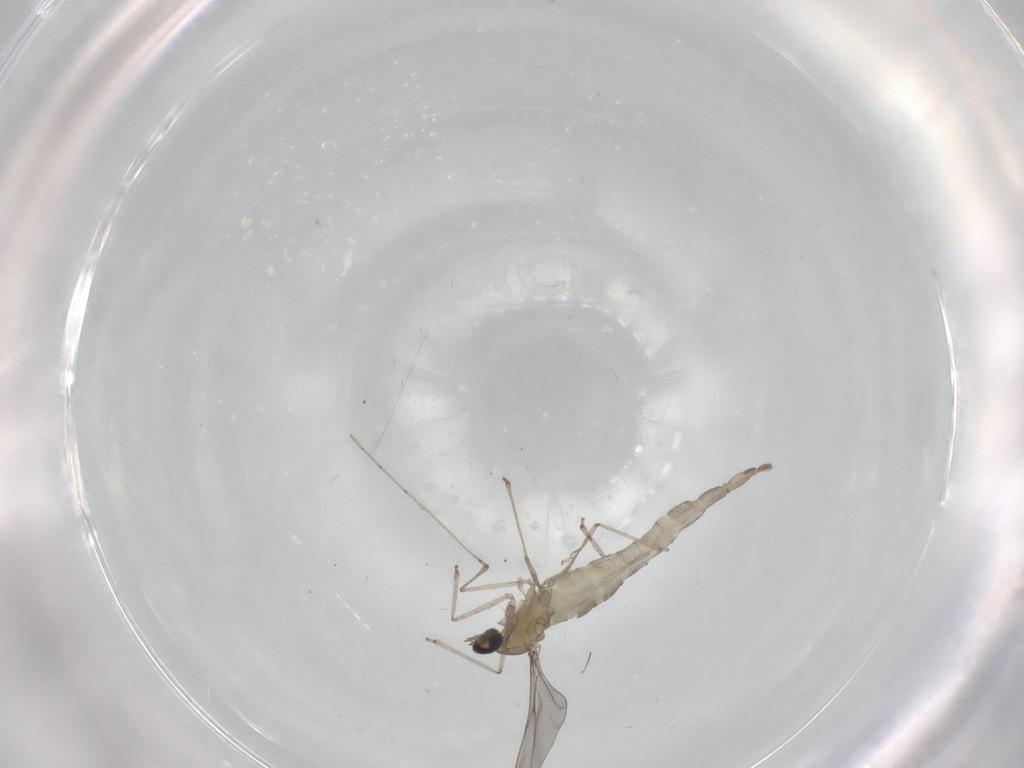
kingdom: Animalia
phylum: Arthropoda
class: Insecta
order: Diptera
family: Cecidomyiidae
